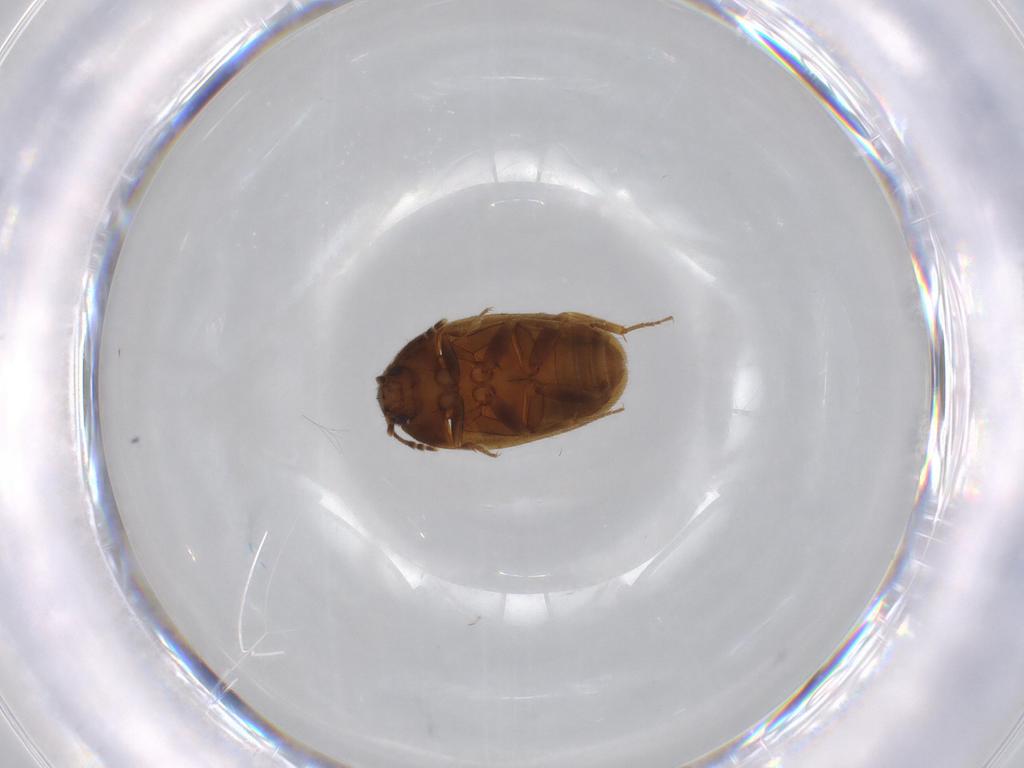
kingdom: Animalia
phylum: Arthropoda
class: Insecta
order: Coleoptera
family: Mycetophagidae
